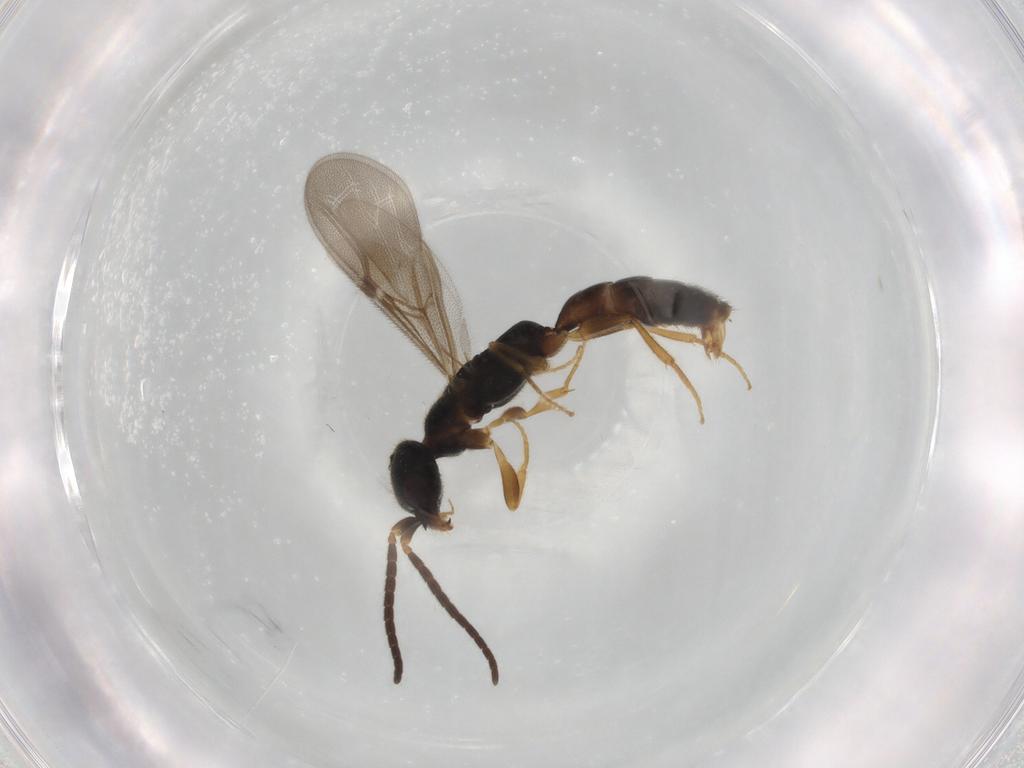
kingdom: Animalia
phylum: Arthropoda
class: Insecta
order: Hymenoptera
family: Bethylidae
